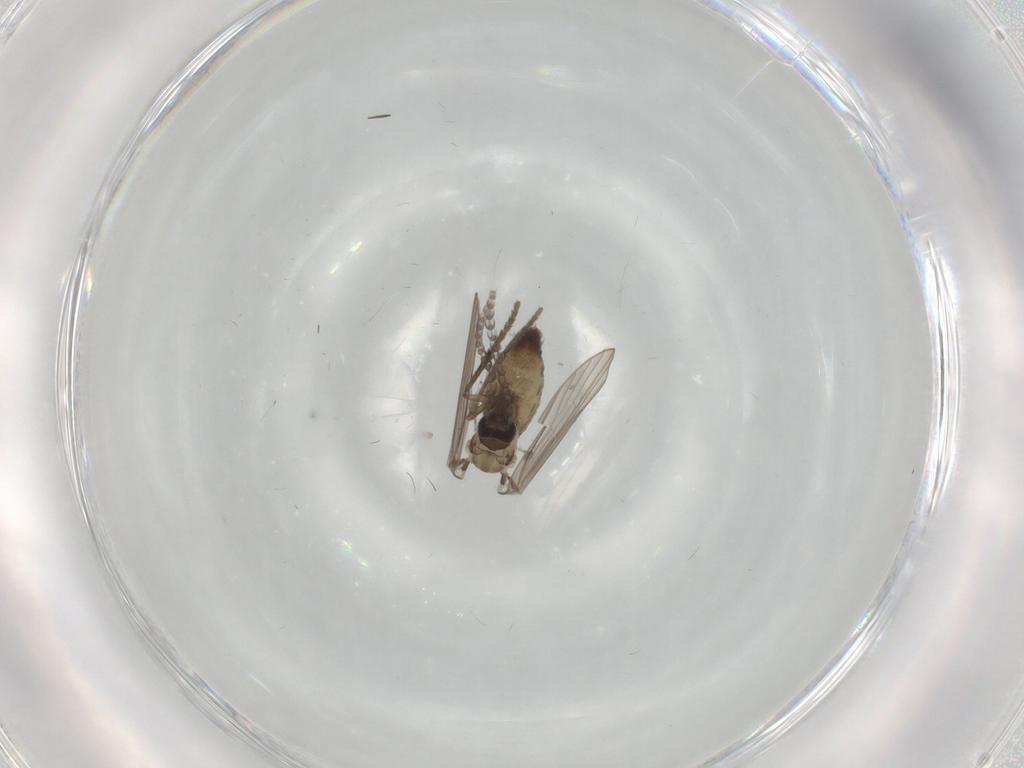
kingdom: Animalia
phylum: Arthropoda
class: Insecta
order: Diptera
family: Psychodidae
